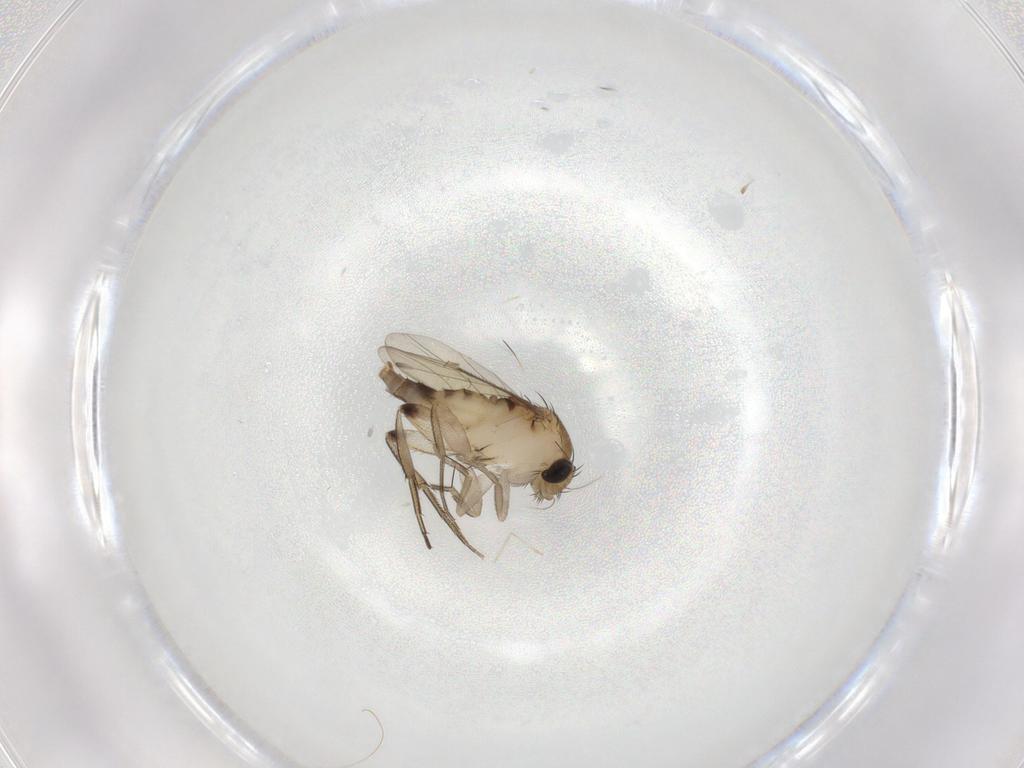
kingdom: Animalia
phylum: Arthropoda
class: Insecta
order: Diptera
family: Phoridae
